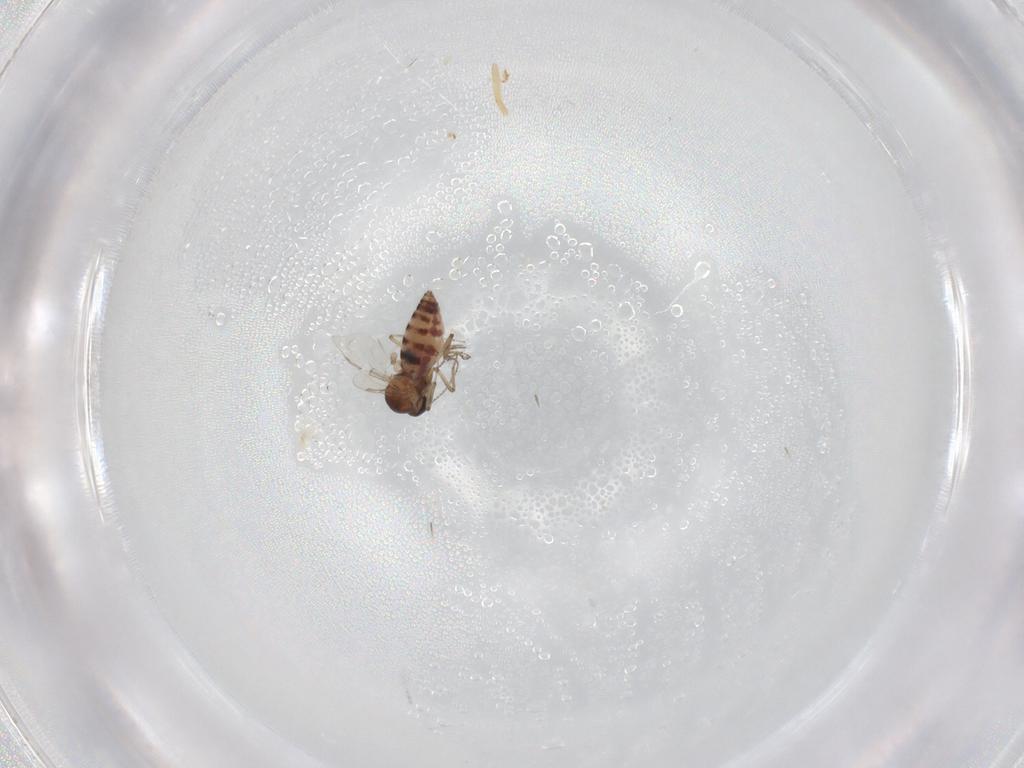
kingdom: Animalia
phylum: Arthropoda
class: Insecta
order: Diptera
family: Ceratopogonidae
